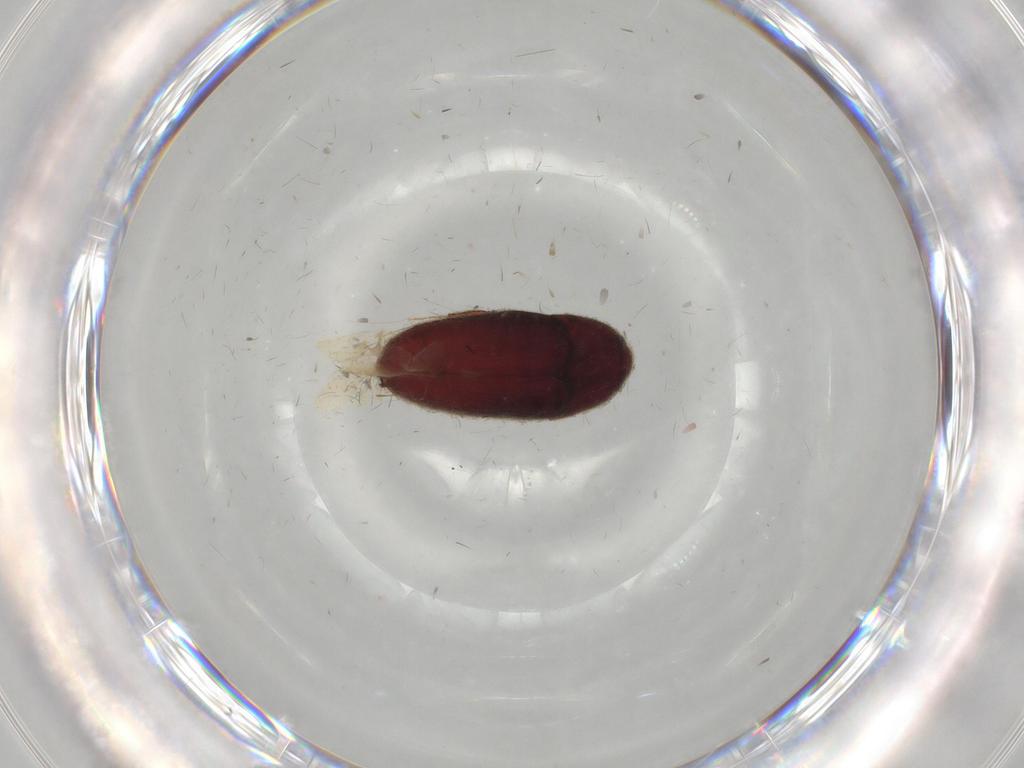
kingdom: Animalia
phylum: Arthropoda
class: Insecta
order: Coleoptera
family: Throscidae
